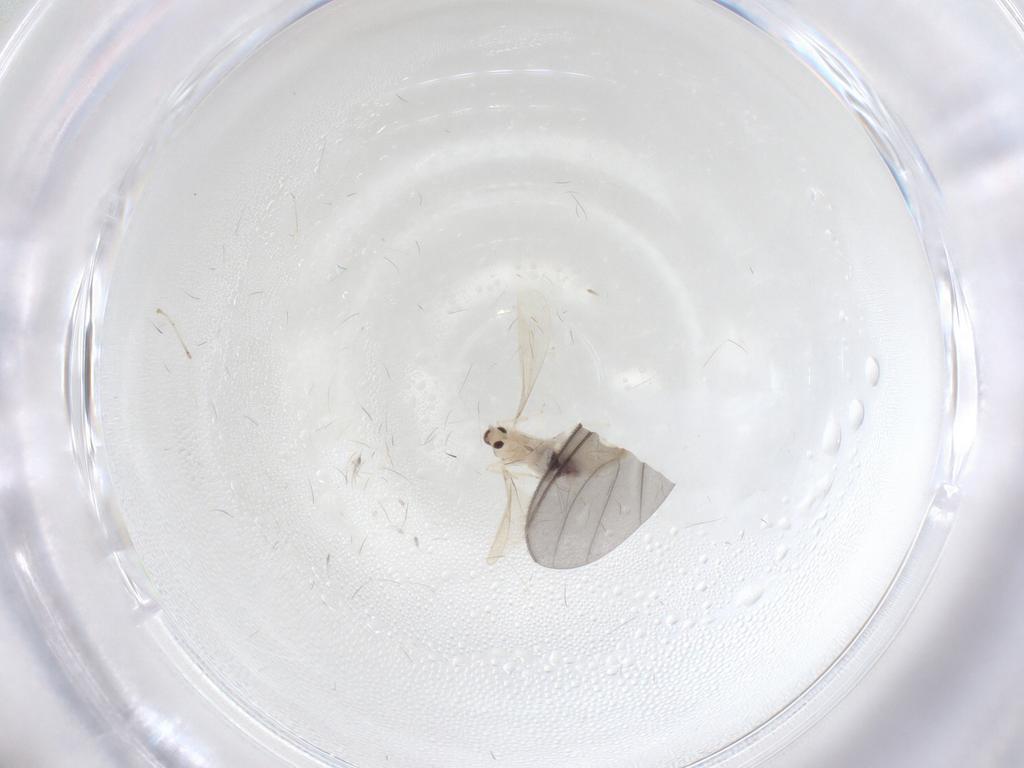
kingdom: Animalia
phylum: Arthropoda
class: Insecta
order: Diptera
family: Cecidomyiidae
